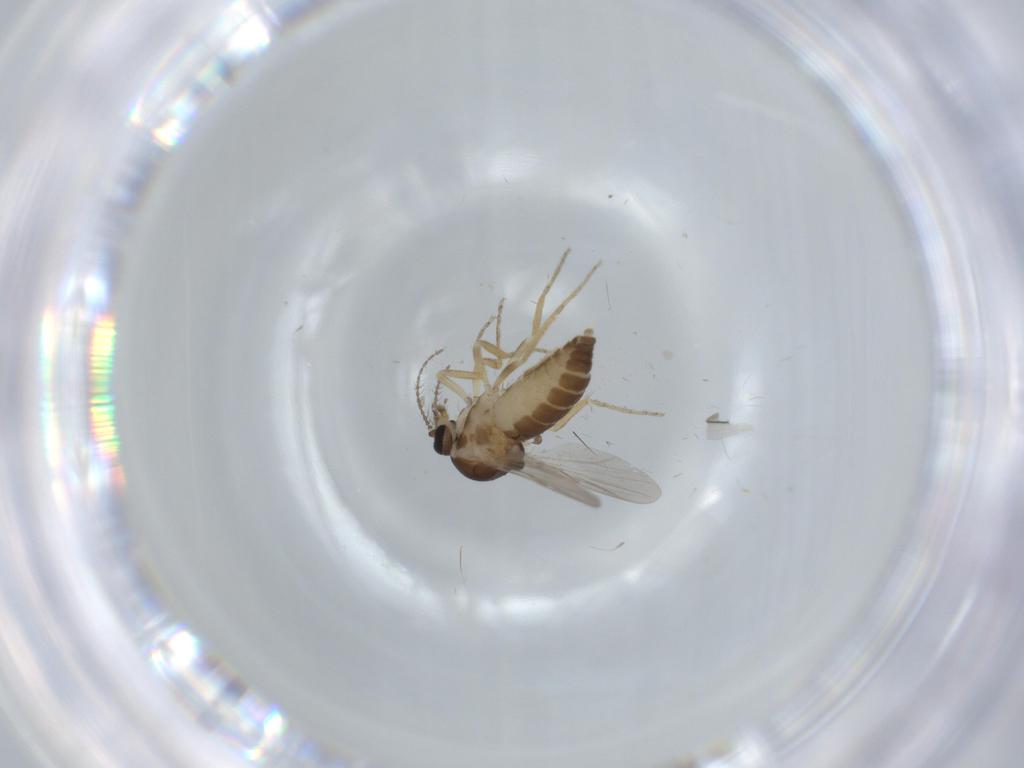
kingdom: Animalia
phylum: Arthropoda
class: Insecta
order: Diptera
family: Ceratopogonidae
